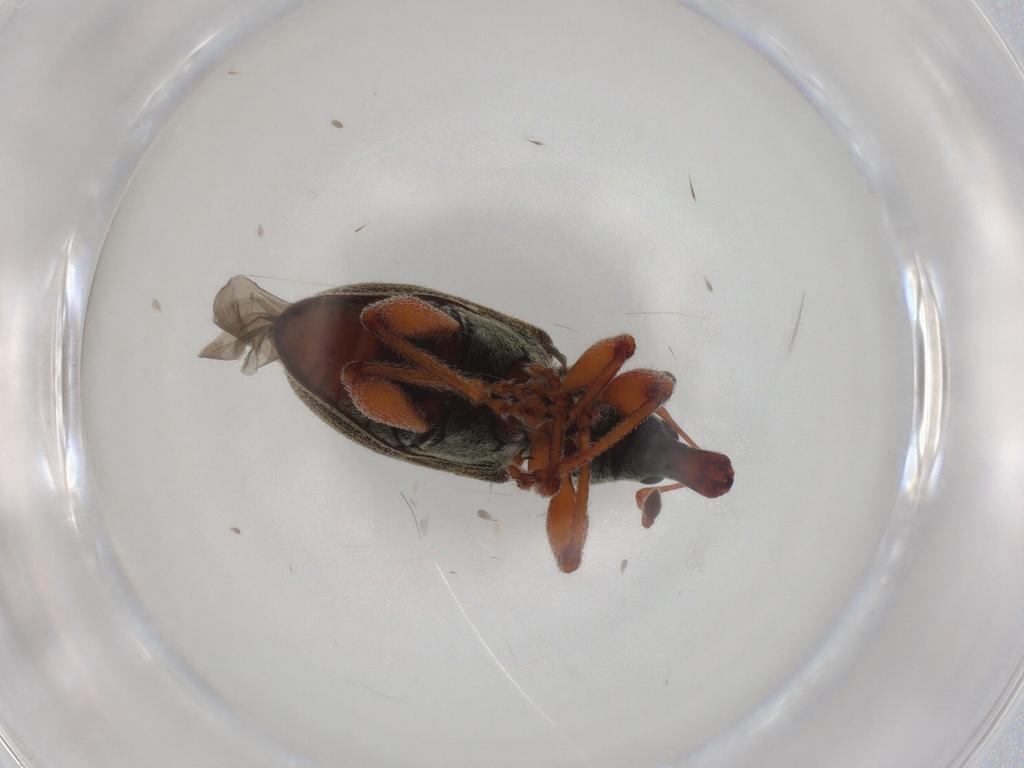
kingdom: Animalia
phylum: Arthropoda
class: Insecta
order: Coleoptera
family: Curculionidae
